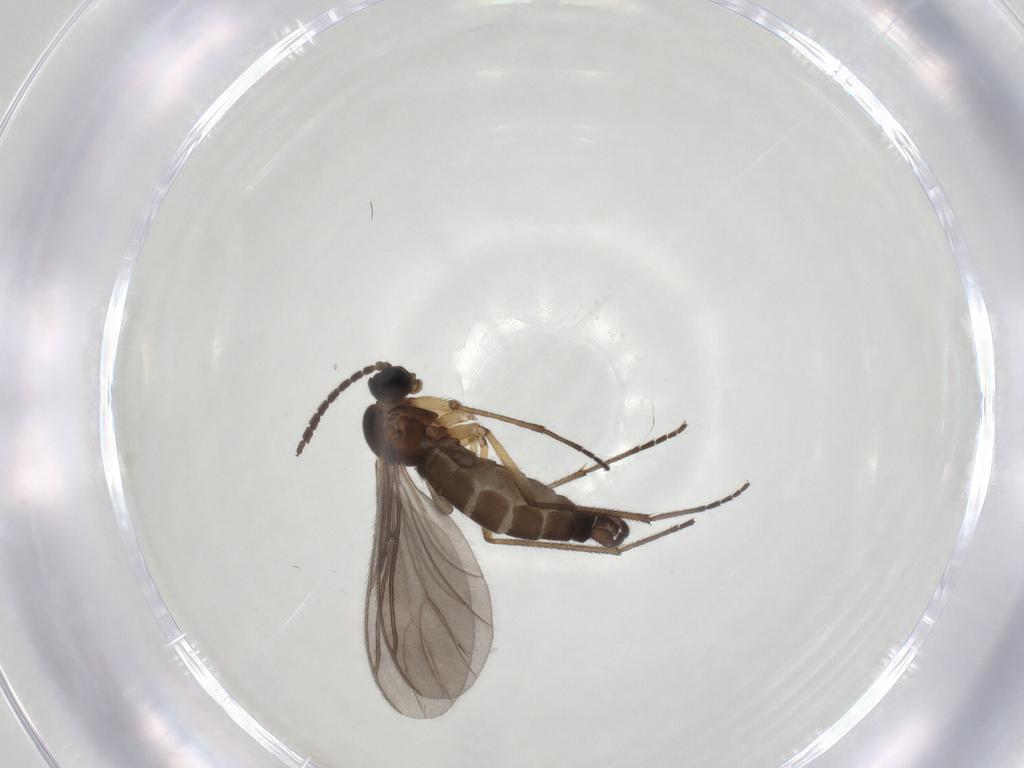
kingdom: Animalia
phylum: Arthropoda
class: Insecta
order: Diptera
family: Sciaridae
